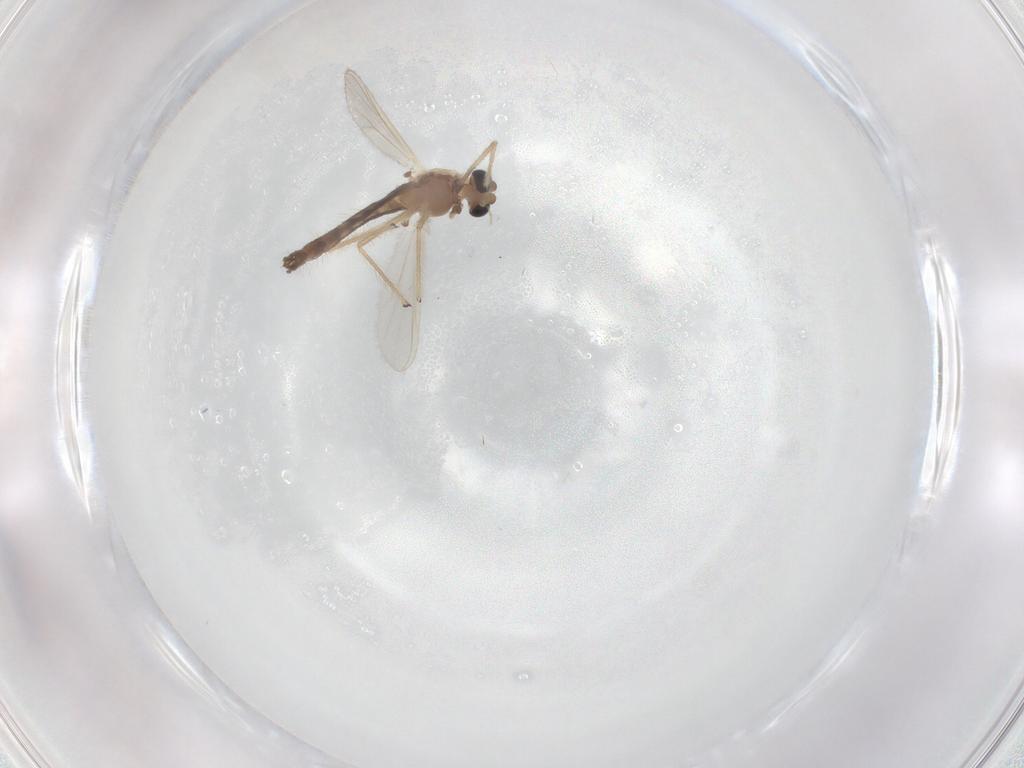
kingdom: Animalia
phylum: Arthropoda
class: Insecta
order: Diptera
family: Chironomidae
